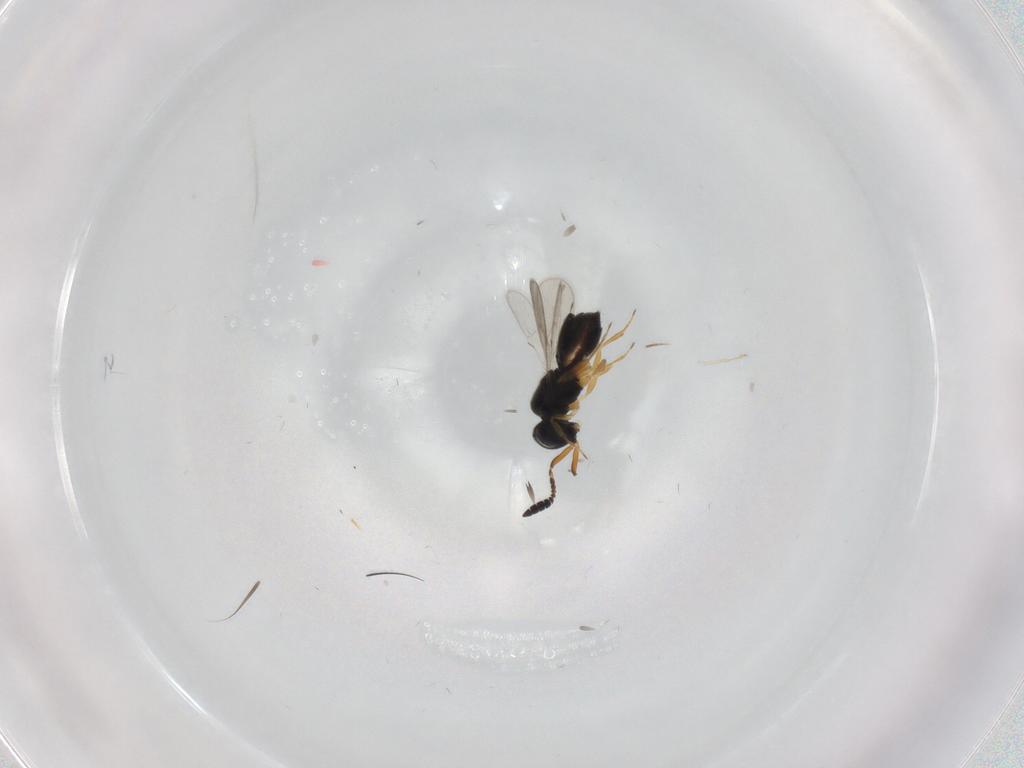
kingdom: Animalia
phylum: Arthropoda
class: Insecta
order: Hymenoptera
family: Scelionidae
